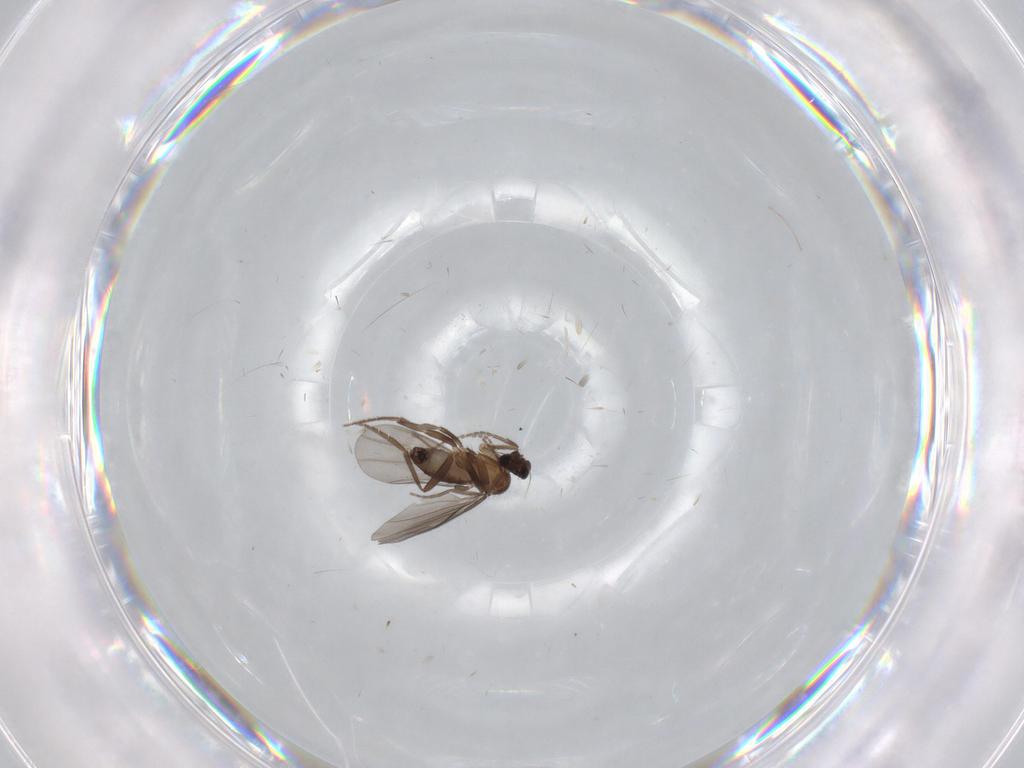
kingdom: Animalia
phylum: Arthropoda
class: Insecta
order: Diptera
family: Phoridae
